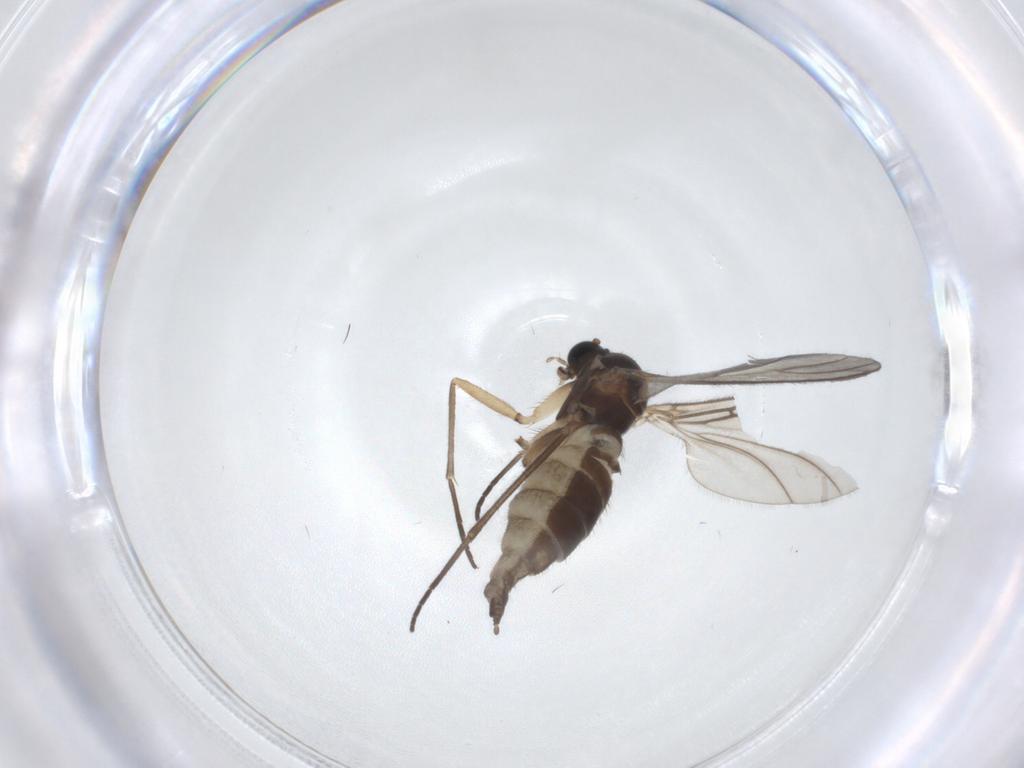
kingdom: Animalia
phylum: Arthropoda
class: Insecta
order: Diptera
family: Sciaridae
